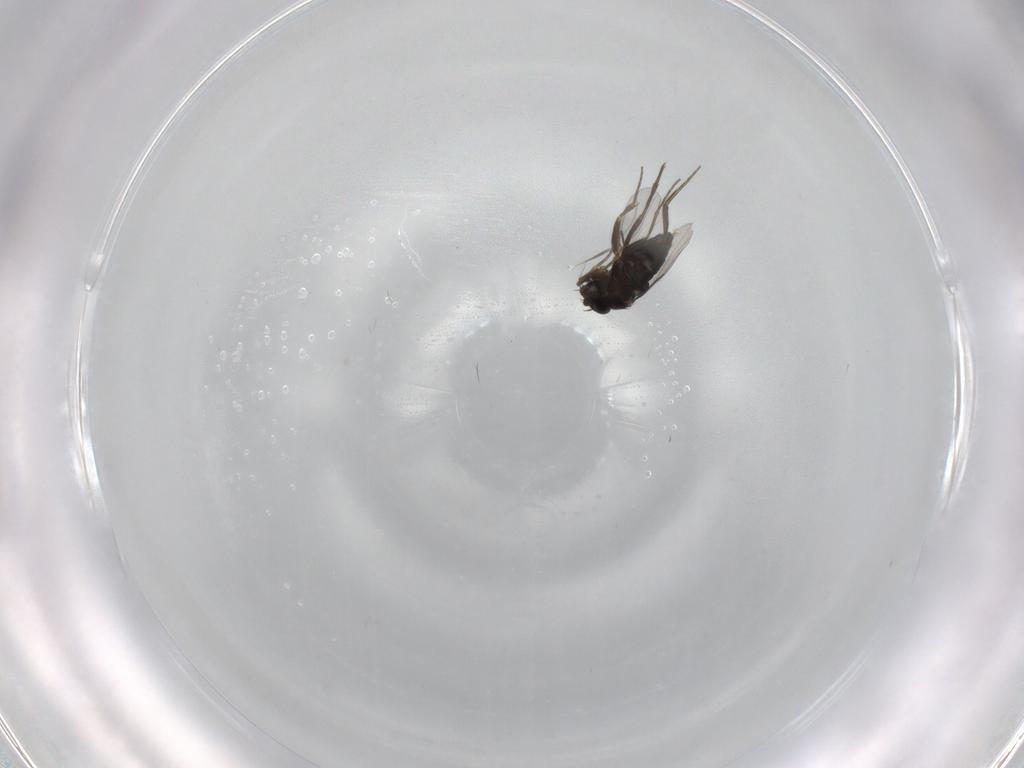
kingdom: Animalia
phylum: Arthropoda
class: Insecta
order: Diptera
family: Phoridae
